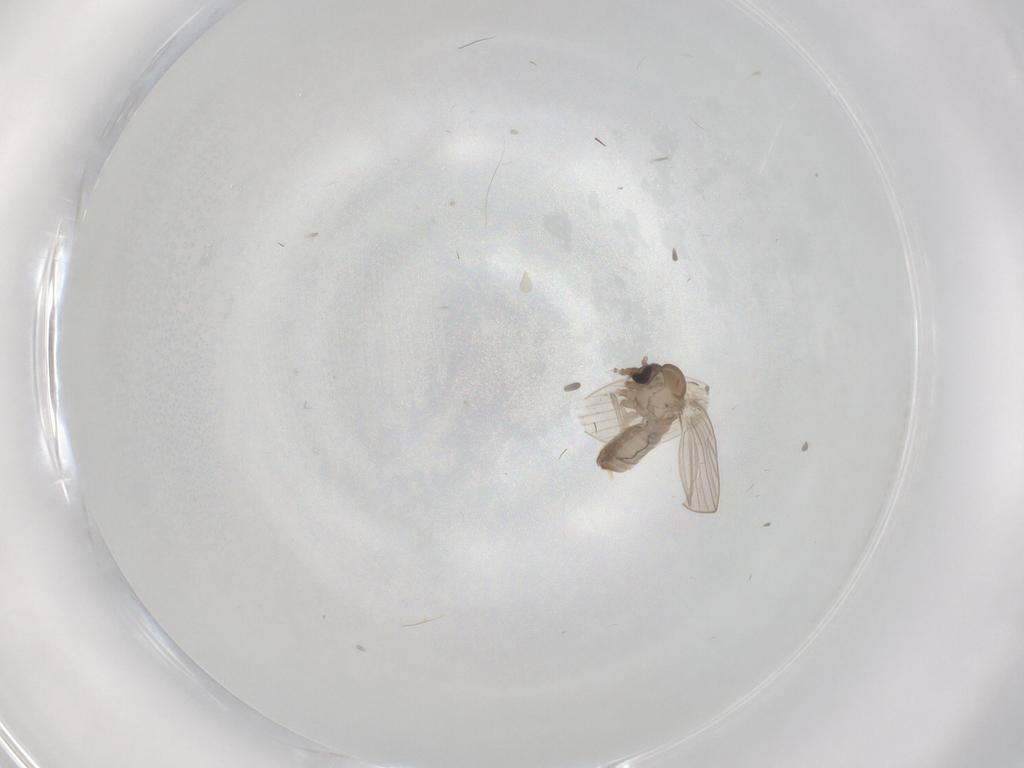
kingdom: Animalia
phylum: Arthropoda
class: Insecta
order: Diptera
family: Psychodidae
